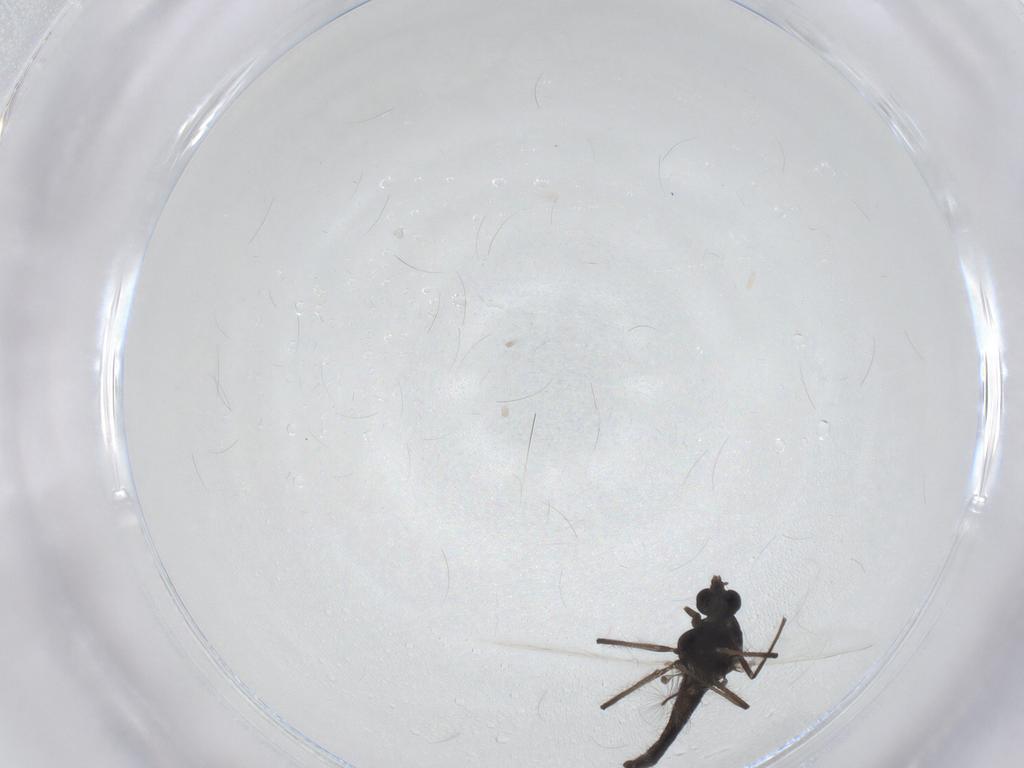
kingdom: Animalia
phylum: Arthropoda
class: Insecta
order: Diptera
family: Chironomidae
